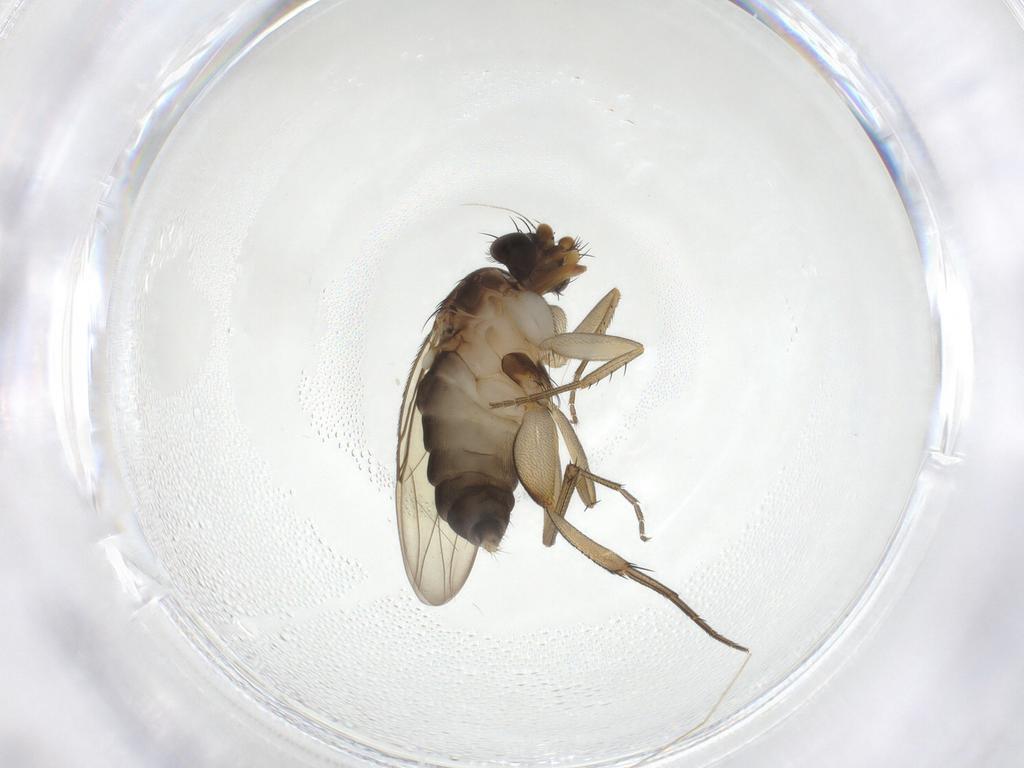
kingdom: Animalia
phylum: Arthropoda
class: Insecta
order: Diptera
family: Phoridae
